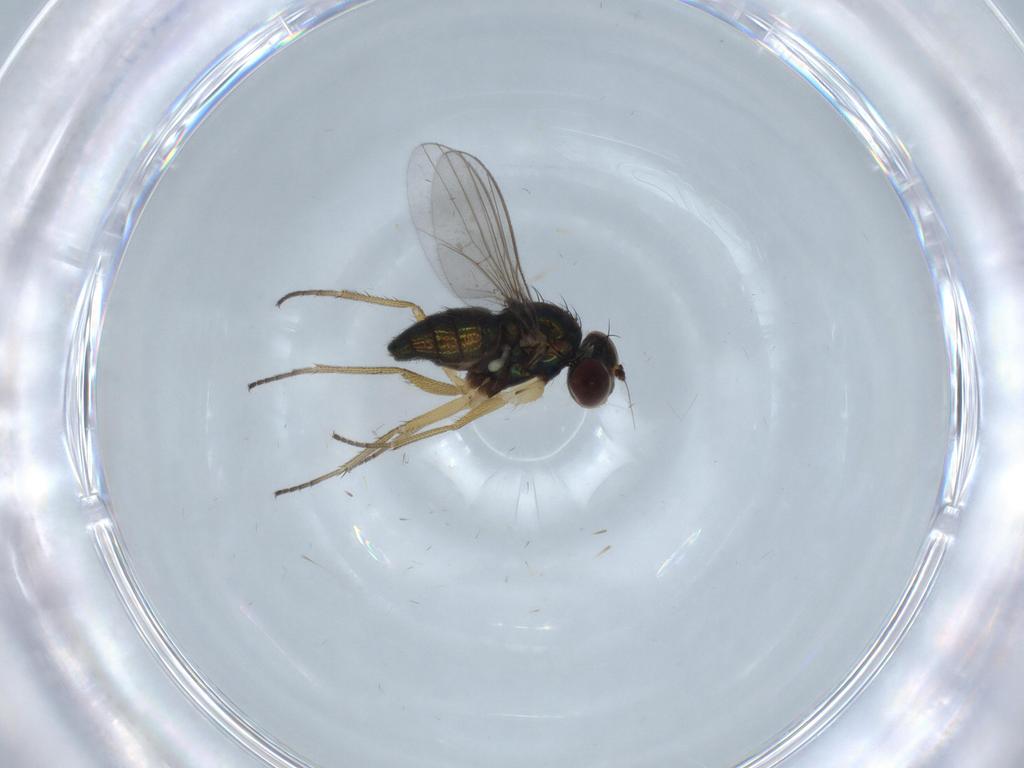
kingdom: Animalia
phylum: Arthropoda
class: Insecta
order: Diptera
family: Dolichopodidae
